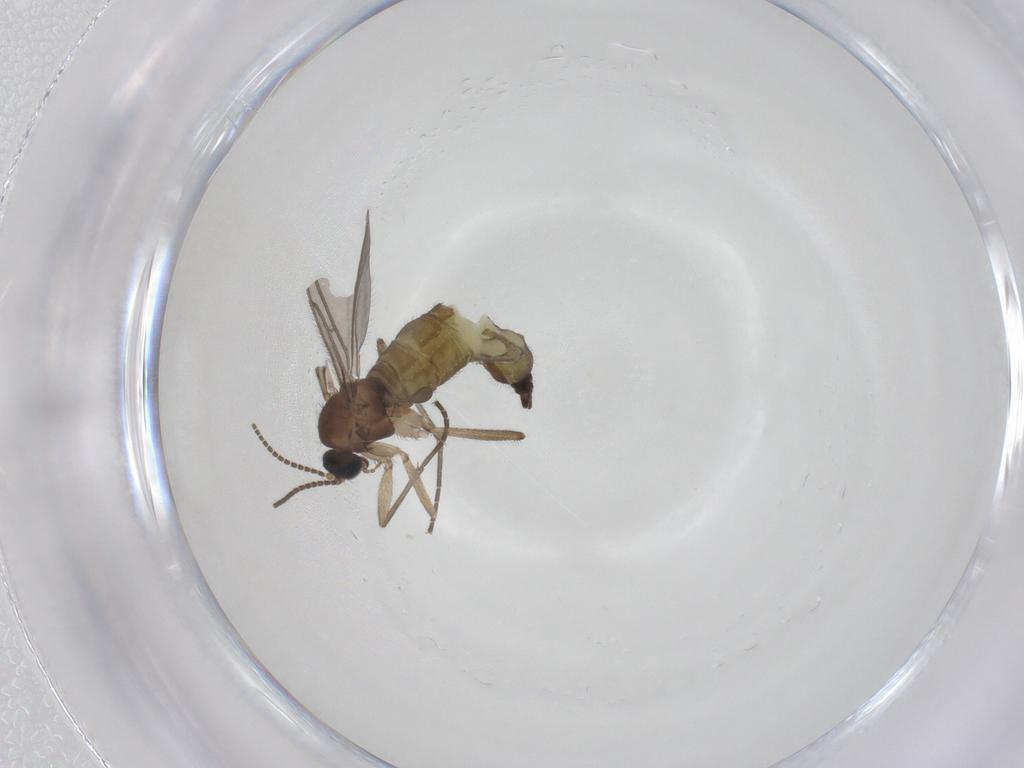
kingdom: Animalia
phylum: Arthropoda
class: Insecta
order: Diptera
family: Sciaridae
